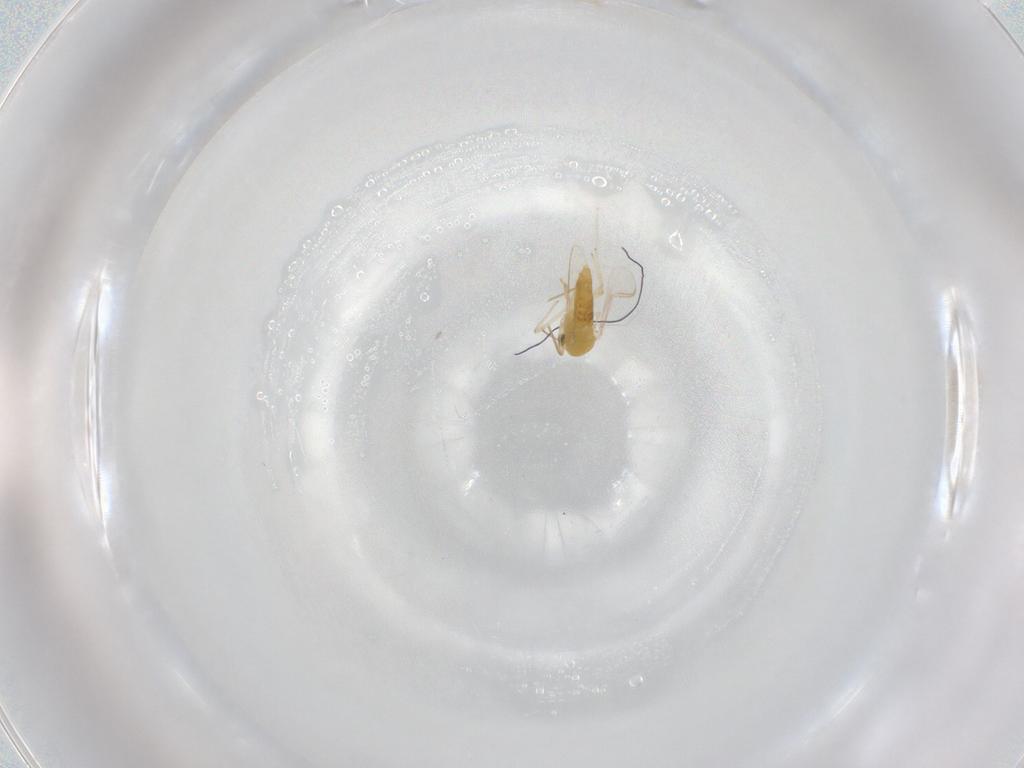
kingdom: Animalia
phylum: Arthropoda
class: Insecta
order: Diptera
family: Chironomidae
